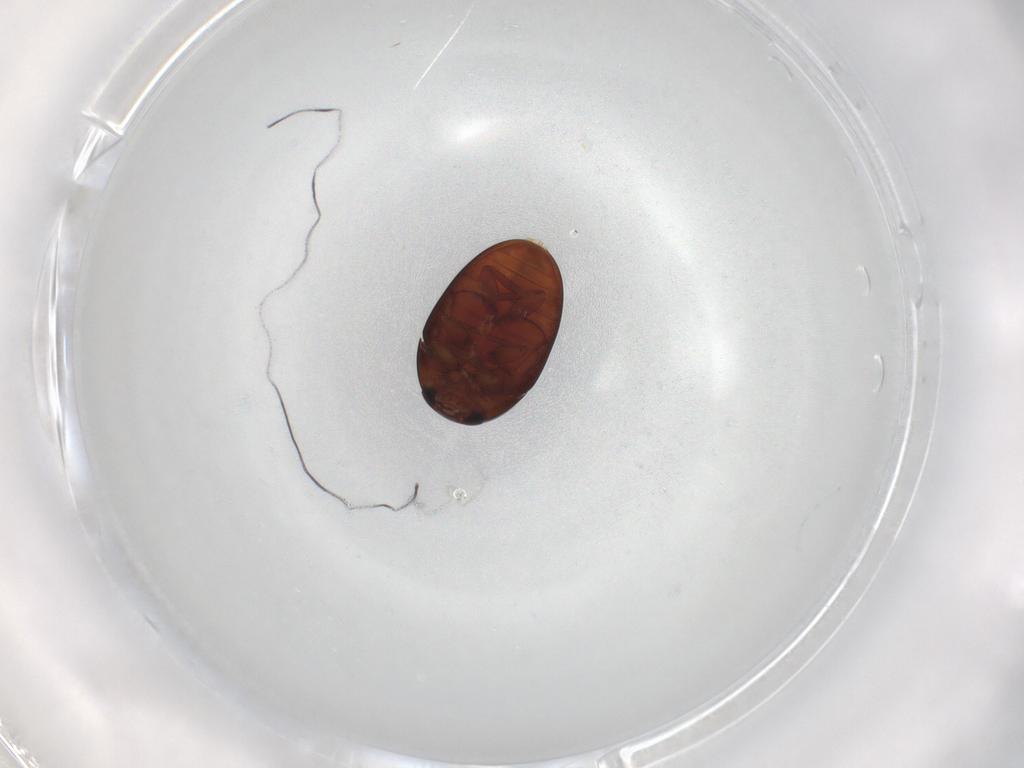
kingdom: Animalia
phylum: Arthropoda
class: Insecta
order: Coleoptera
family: Phalacridae
